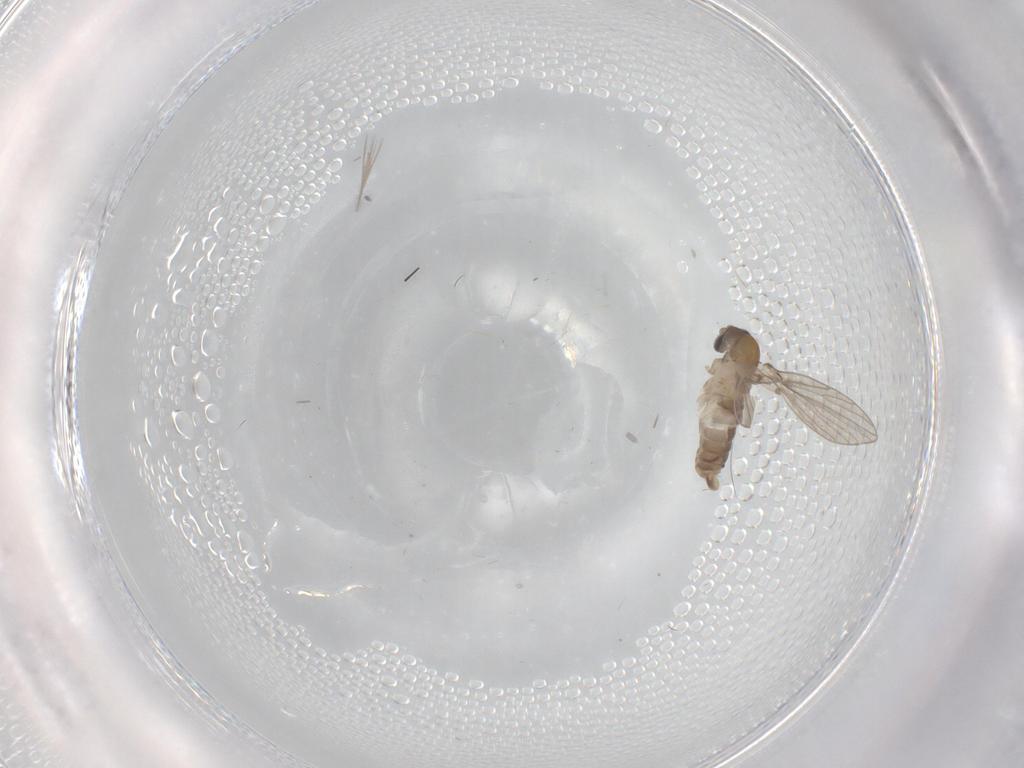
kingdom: Animalia
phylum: Arthropoda
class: Insecta
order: Diptera
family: Psychodidae
